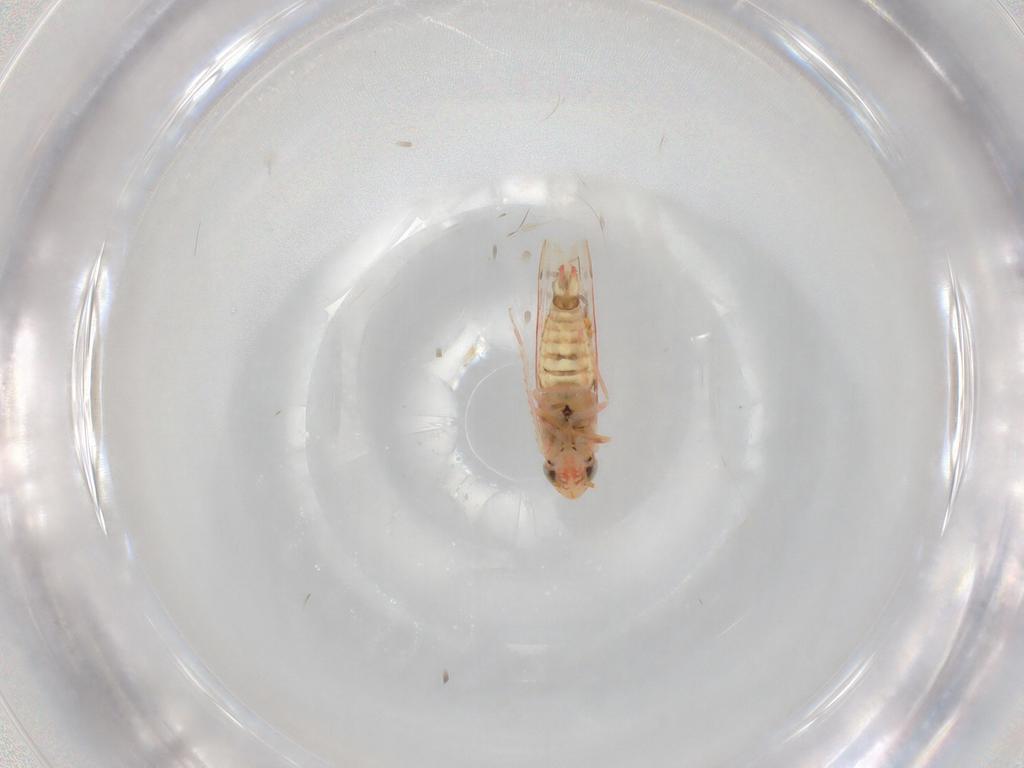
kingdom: Animalia
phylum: Arthropoda
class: Insecta
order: Hemiptera
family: Cicadellidae
